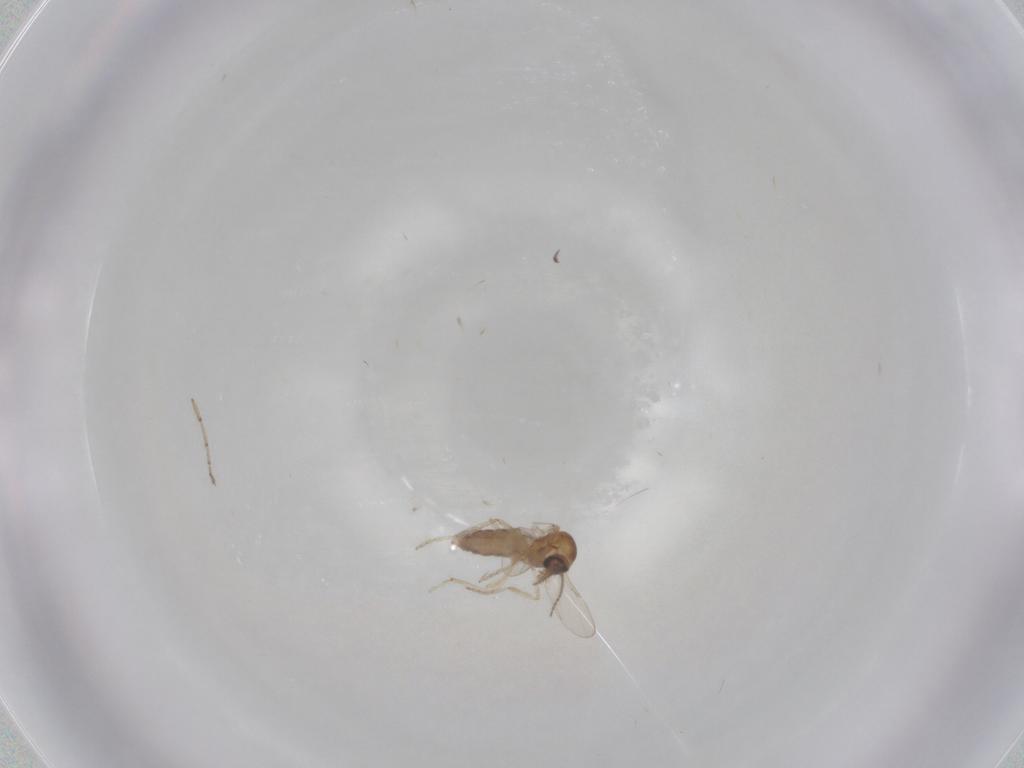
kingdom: Animalia
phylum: Arthropoda
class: Insecta
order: Diptera
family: Ceratopogonidae
